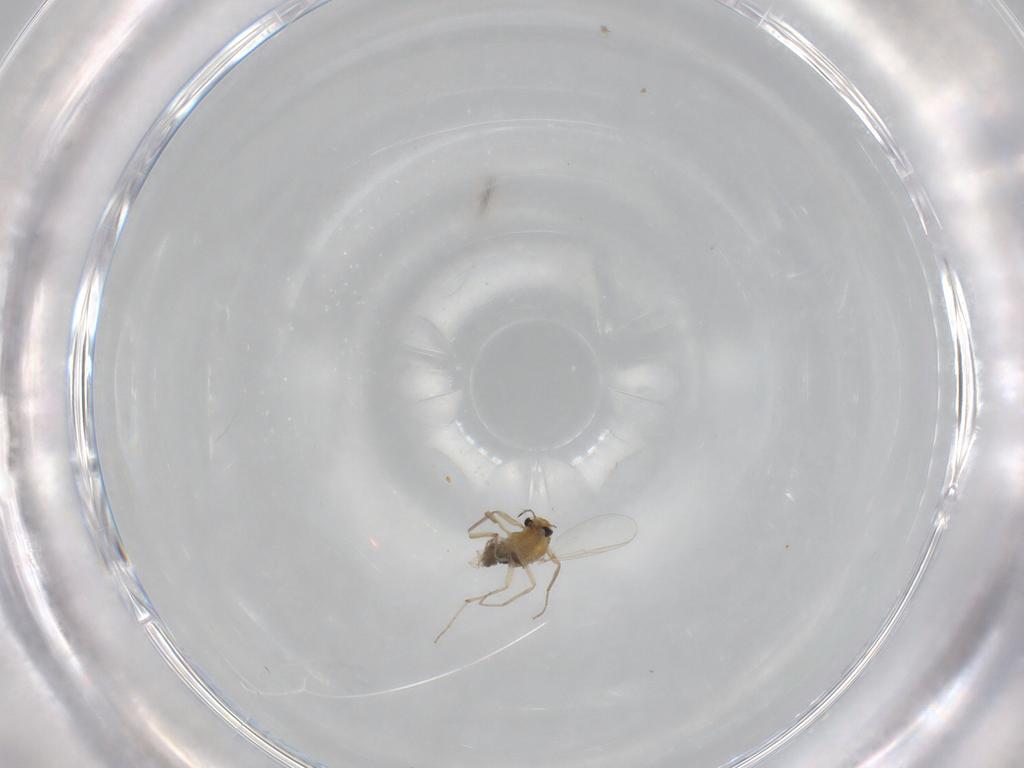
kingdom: Animalia
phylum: Arthropoda
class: Insecta
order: Diptera
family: Chironomidae
